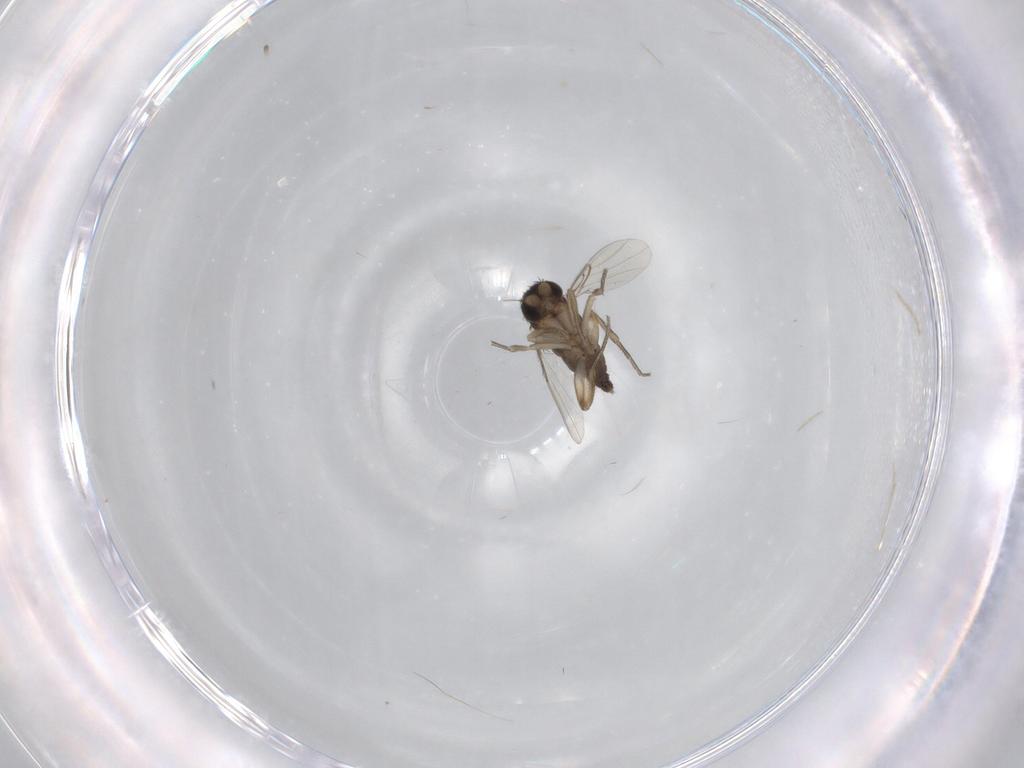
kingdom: Animalia
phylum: Arthropoda
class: Insecta
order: Diptera
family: Phoridae
